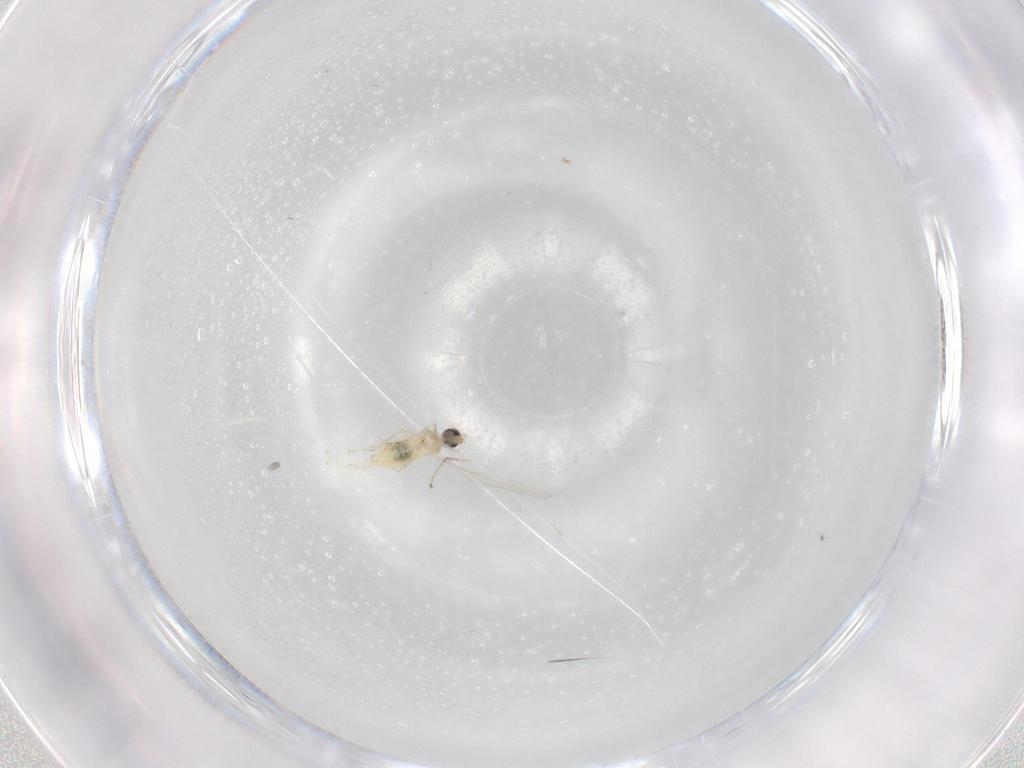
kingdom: Animalia
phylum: Arthropoda
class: Insecta
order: Diptera
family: Cecidomyiidae
